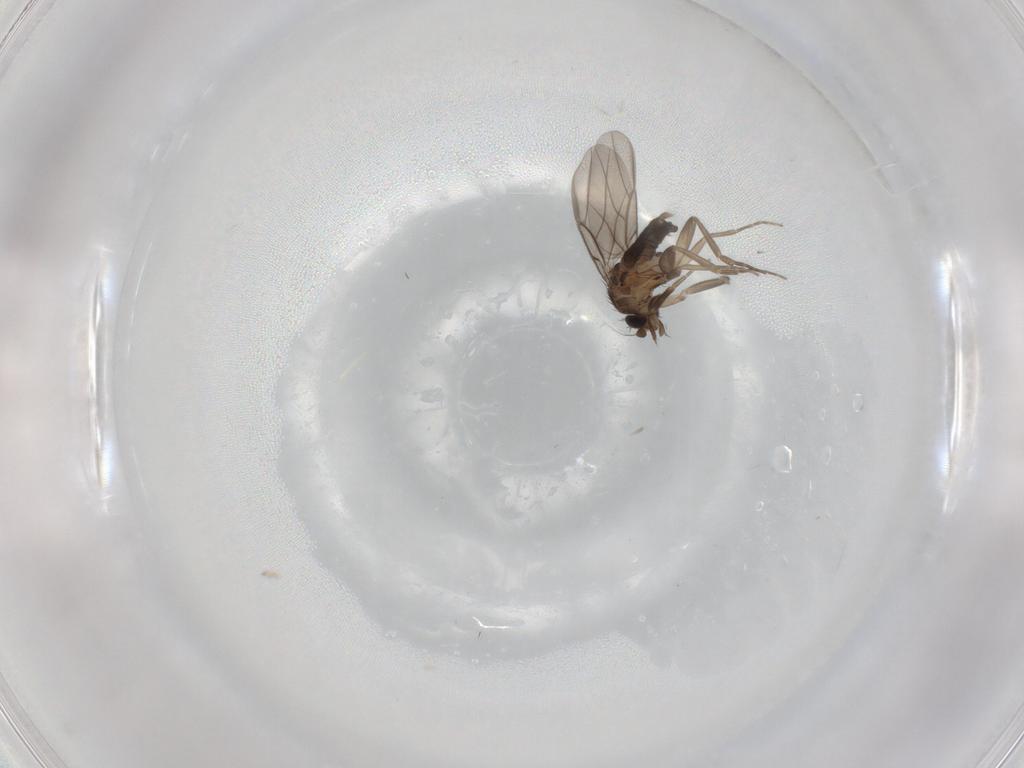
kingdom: Animalia
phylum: Arthropoda
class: Insecta
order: Diptera
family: Phoridae
